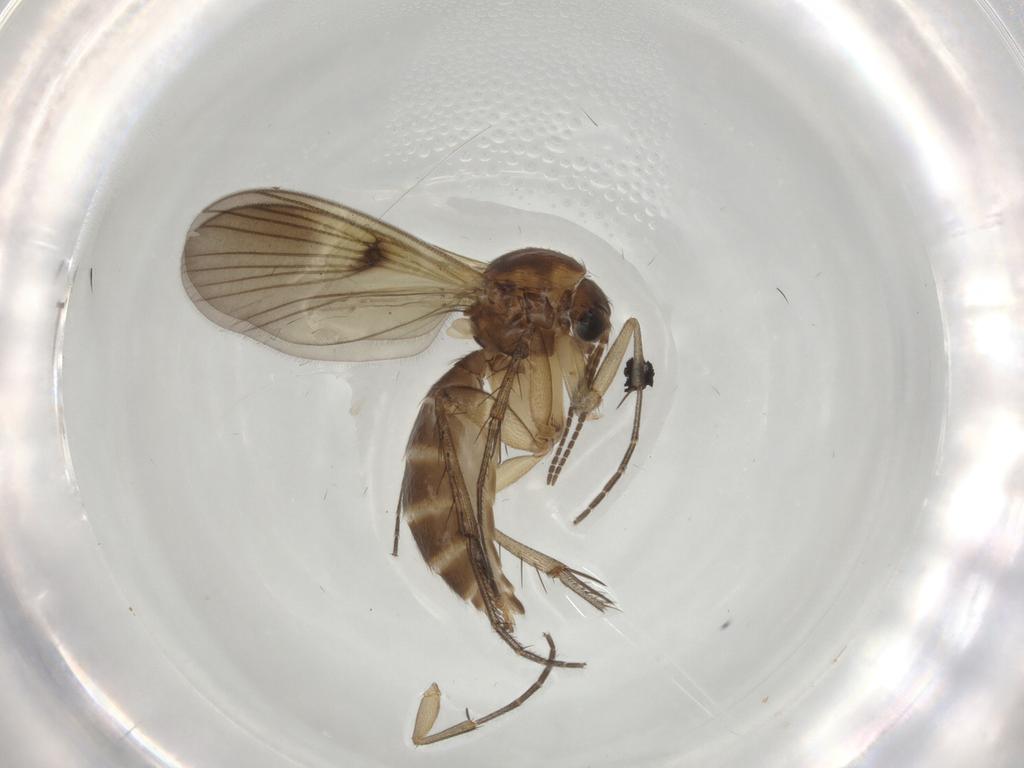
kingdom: Animalia
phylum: Arthropoda
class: Insecta
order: Diptera
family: Mycetophilidae
